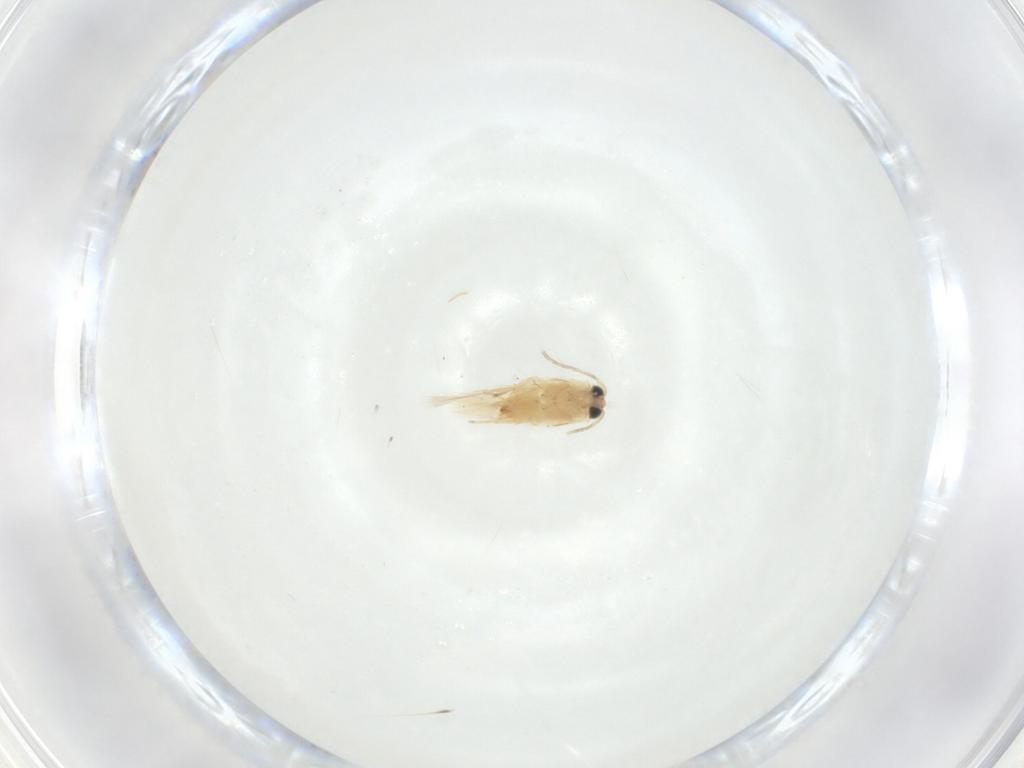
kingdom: Animalia
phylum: Arthropoda
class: Insecta
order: Lepidoptera
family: Crambidae
